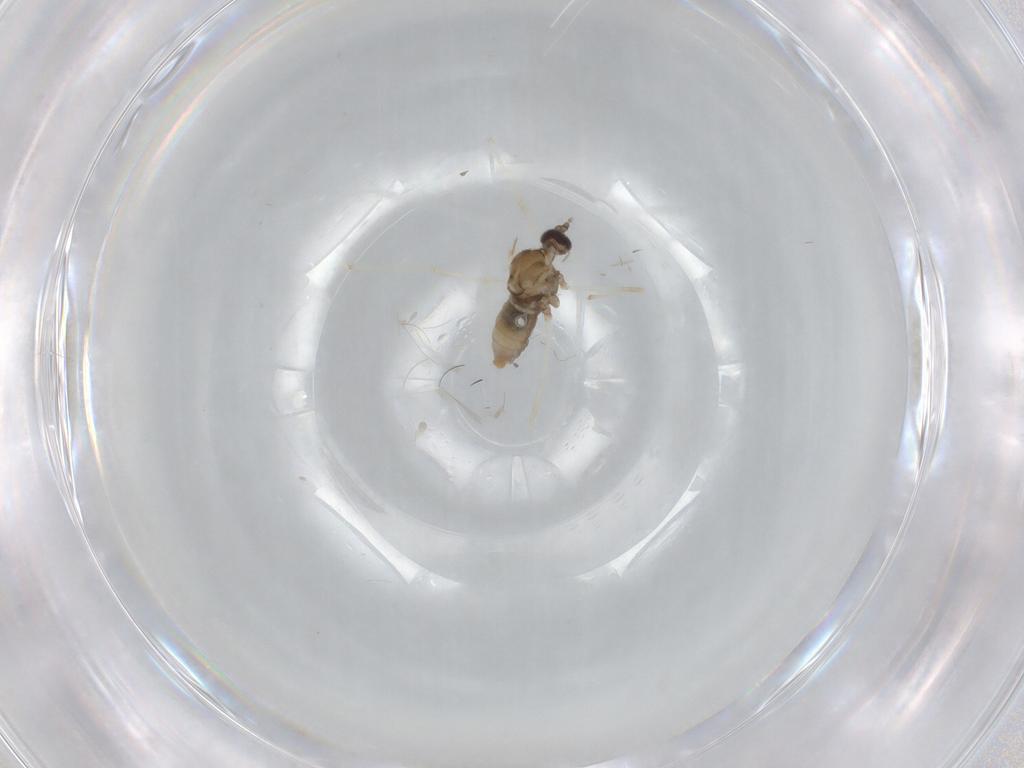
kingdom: Animalia
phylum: Arthropoda
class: Insecta
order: Diptera
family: Cecidomyiidae
